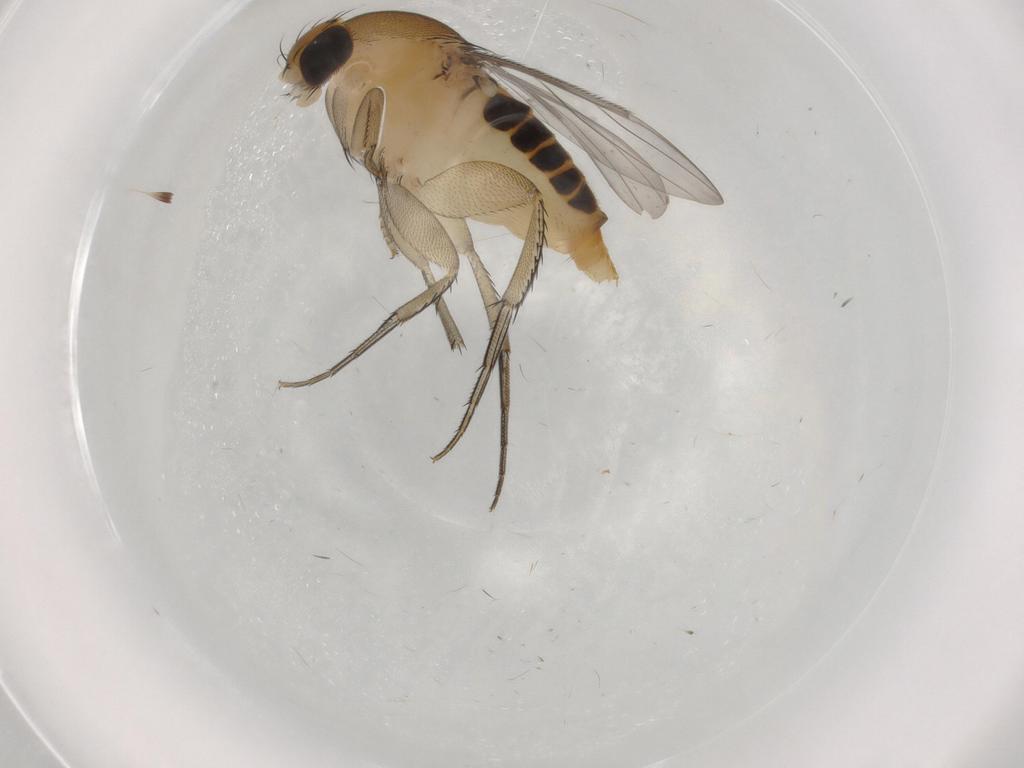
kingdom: Animalia
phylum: Arthropoda
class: Insecta
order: Diptera
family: Phoridae
